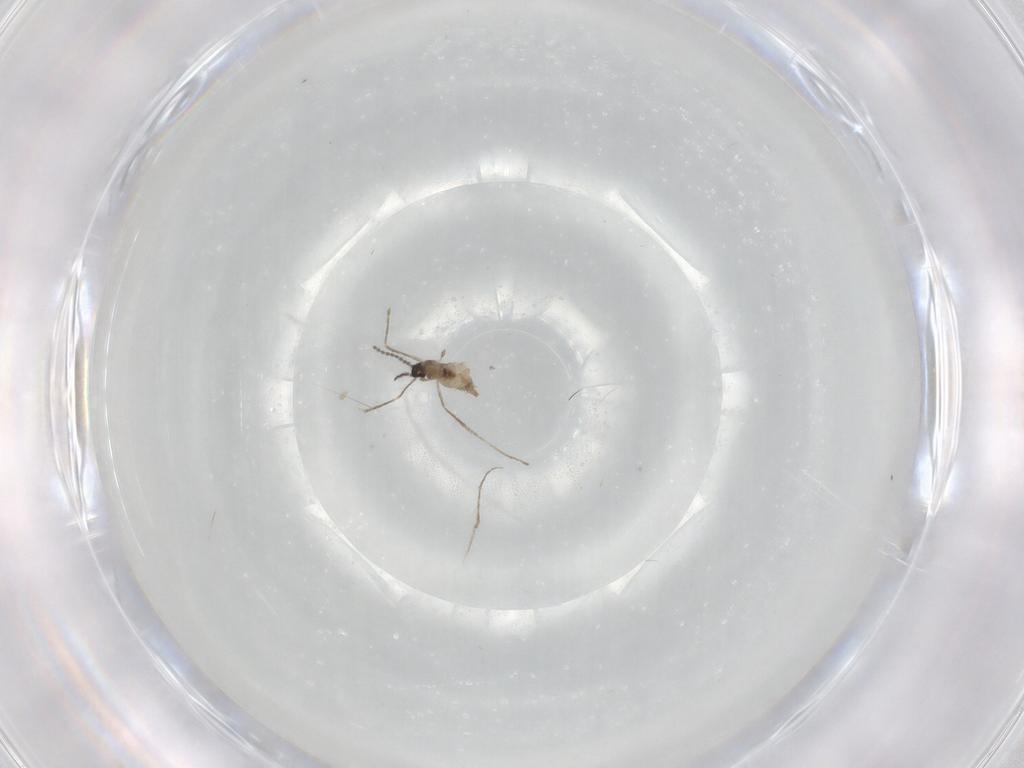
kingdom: Animalia
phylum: Arthropoda
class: Insecta
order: Diptera
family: Cecidomyiidae
